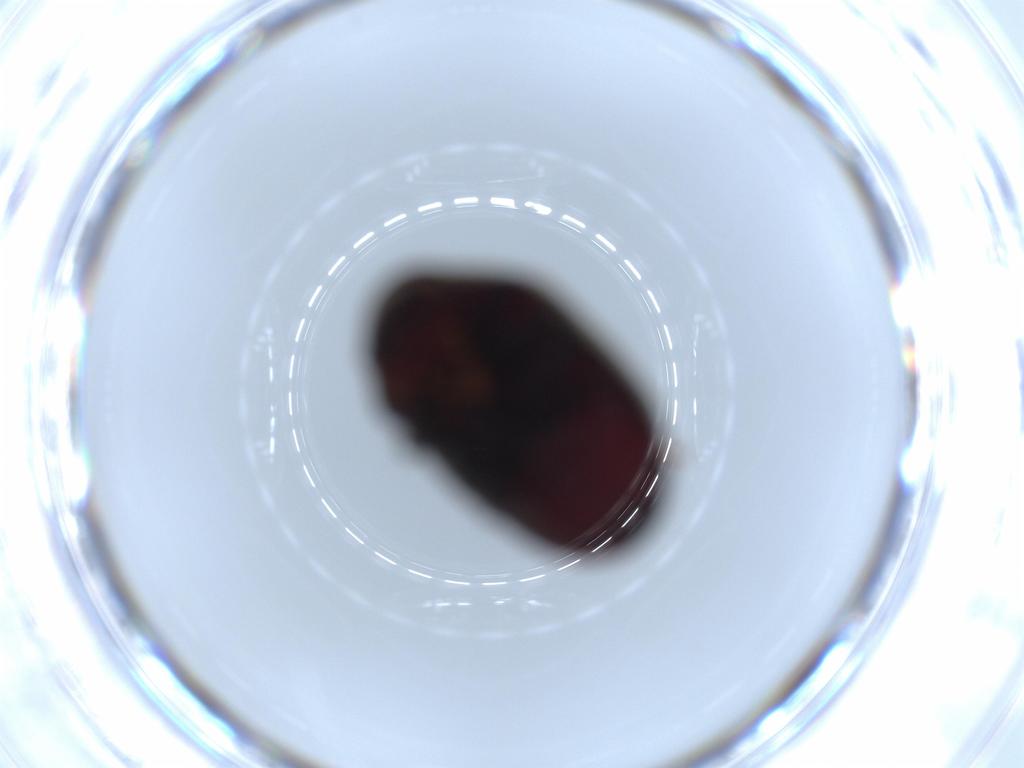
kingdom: Animalia
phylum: Arthropoda
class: Insecta
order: Coleoptera
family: Ptinidae
